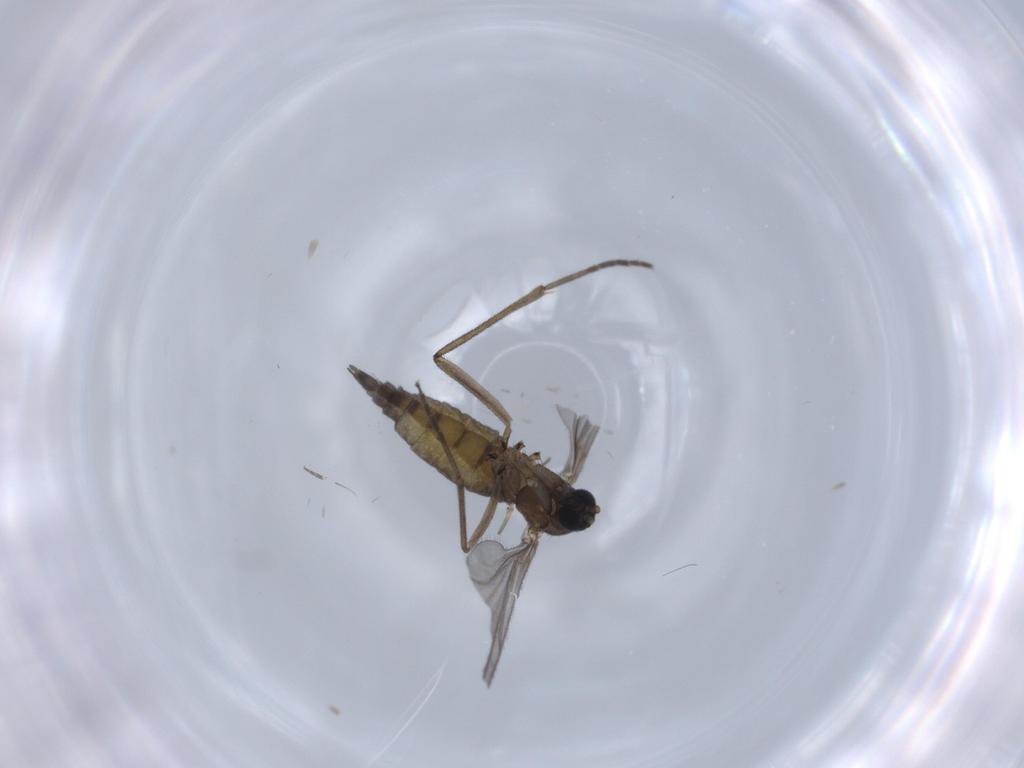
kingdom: Animalia
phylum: Arthropoda
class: Insecta
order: Diptera
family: Sciaridae
